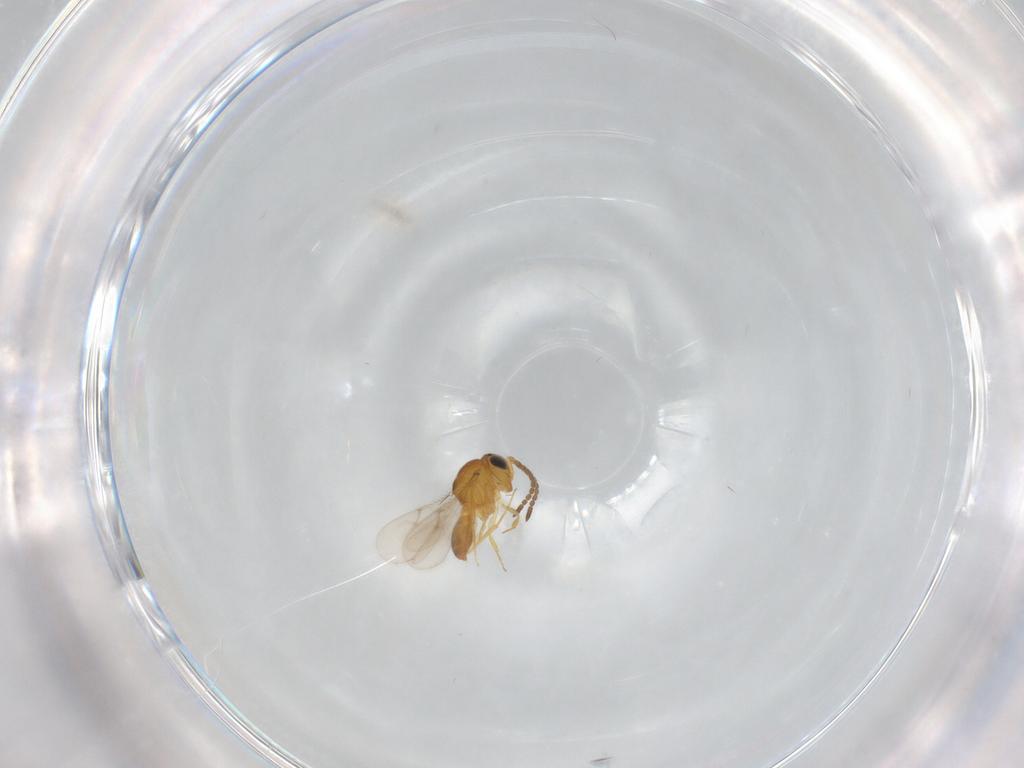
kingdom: Animalia
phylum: Arthropoda
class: Insecta
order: Hymenoptera
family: Scelionidae
